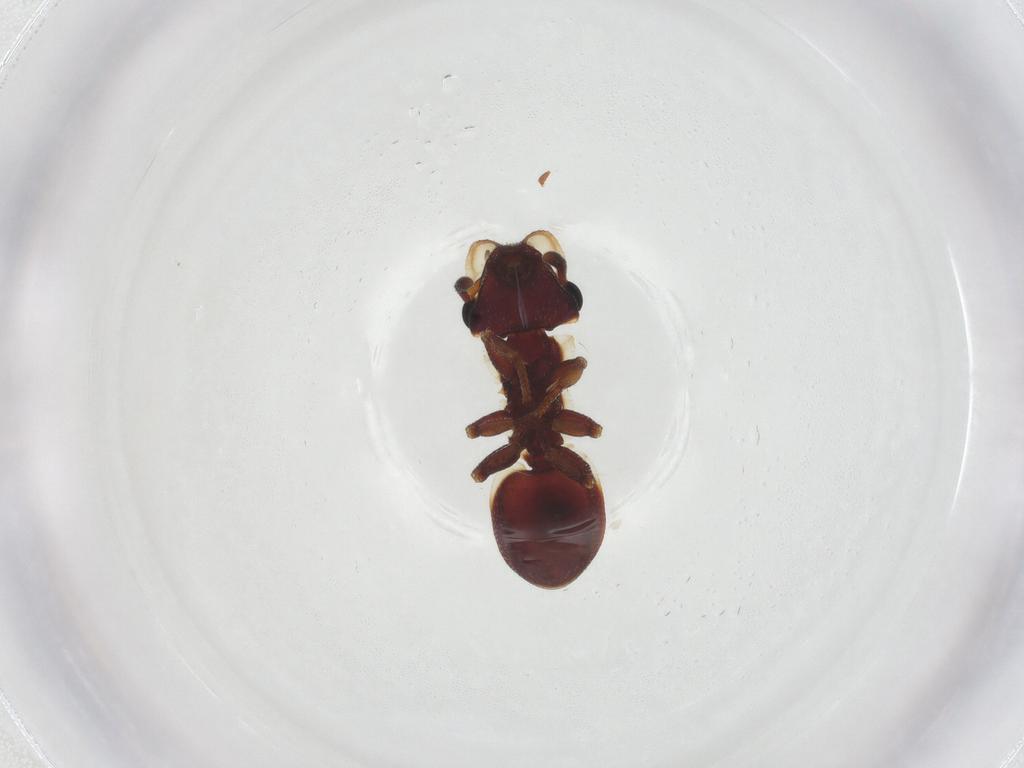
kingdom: Animalia
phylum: Arthropoda
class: Insecta
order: Hymenoptera
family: Formicidae
